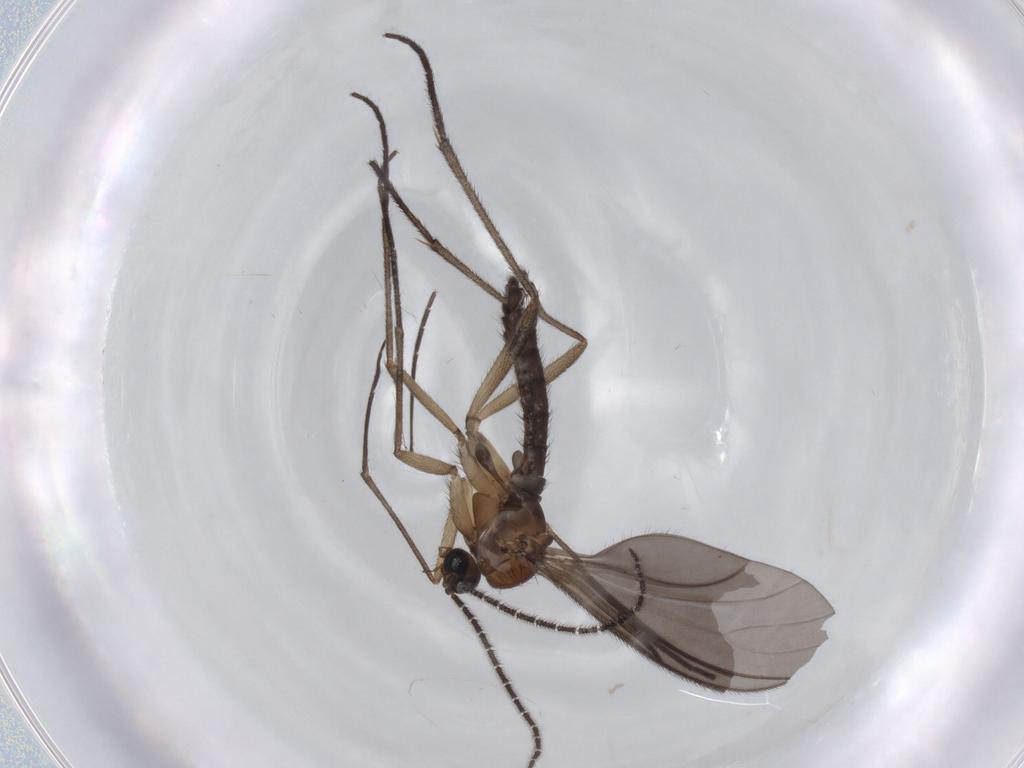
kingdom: Animalia
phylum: Arthropoda
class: Insecta
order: Diptera
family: Sciaridae
